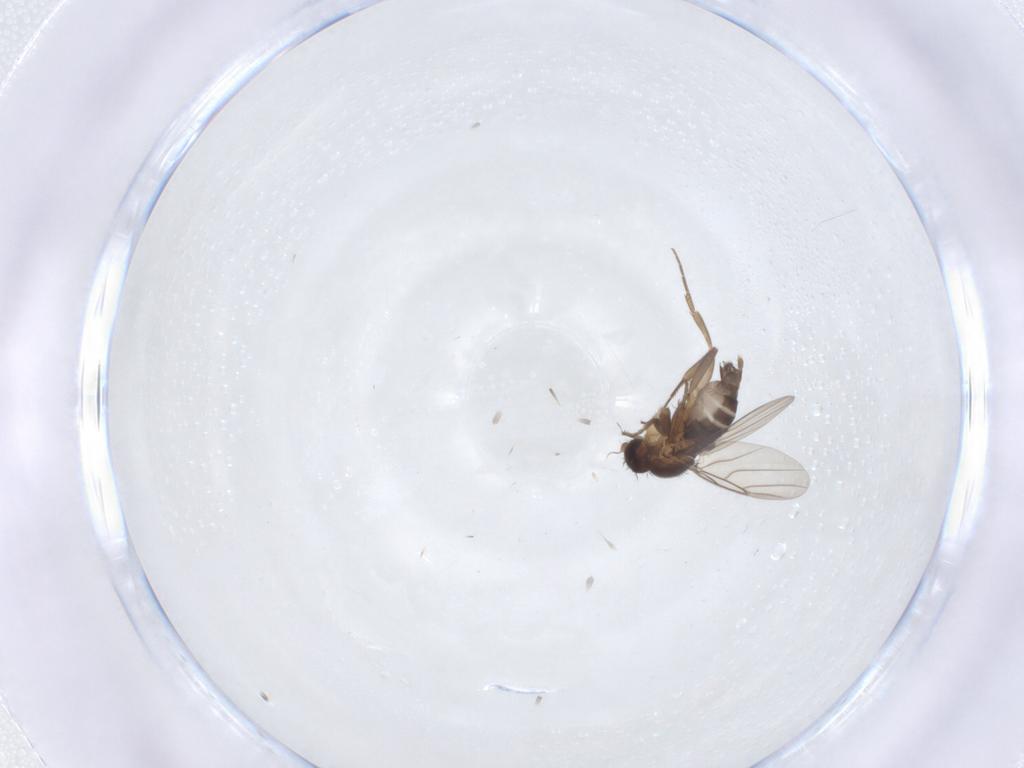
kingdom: Animalia
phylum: Arthropoda
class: Insecta
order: Diptera
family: Phoridae
